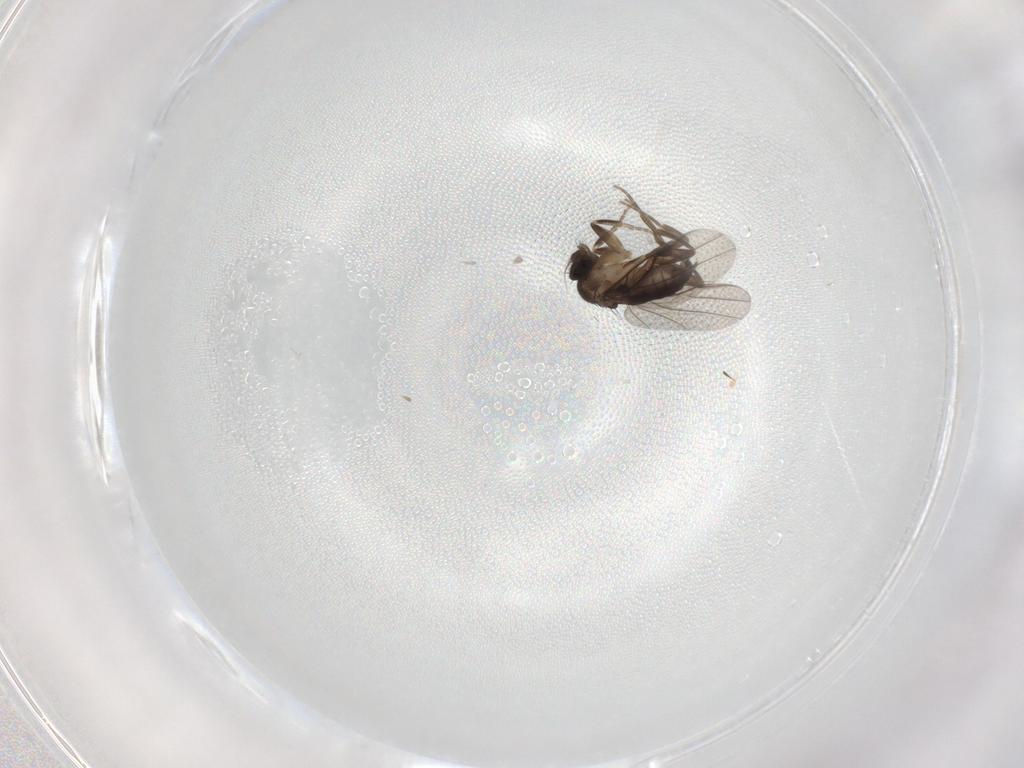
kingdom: Animalia
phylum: Arthropoda
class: Insecta
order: Diptera
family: Phoridae
